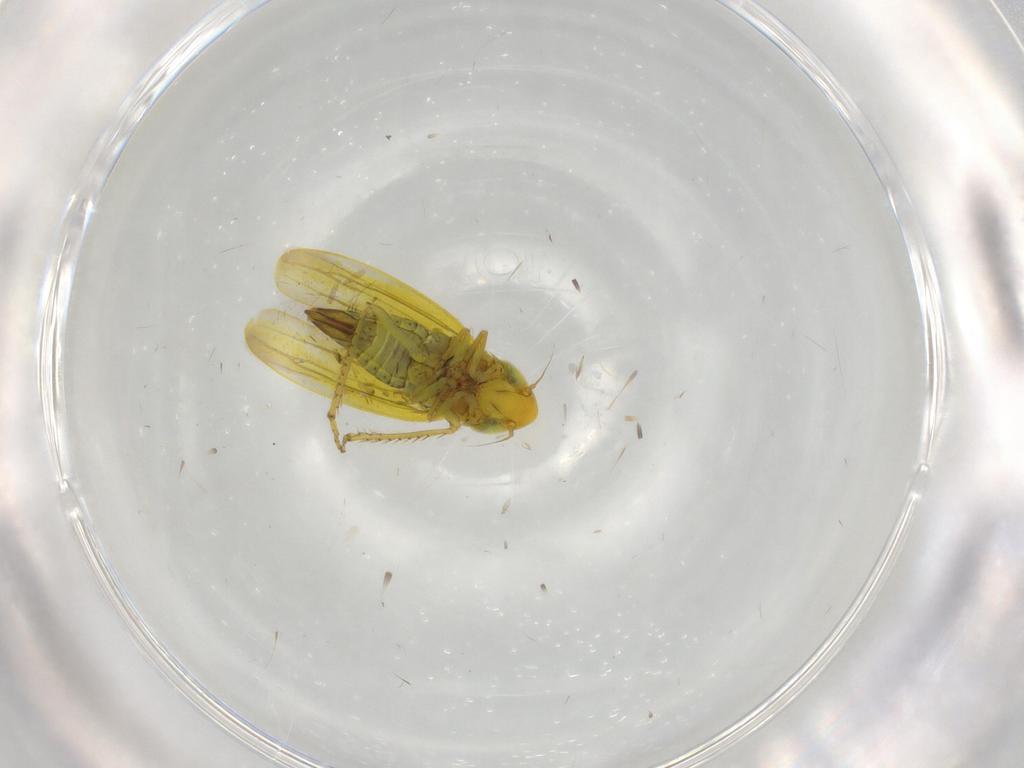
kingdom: Animalia
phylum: Arthropoda
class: Insecta
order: Hemiptera
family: Cicadellidae
